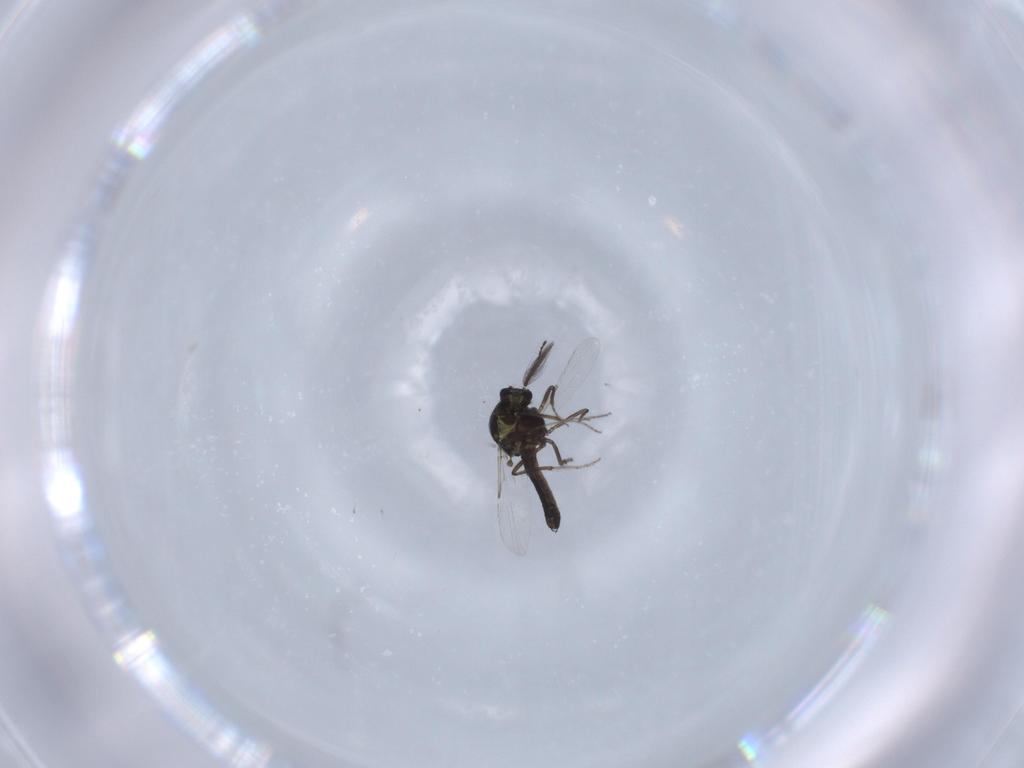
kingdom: Animalia
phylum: Arthropoda
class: Insecta
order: Diptera
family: Ceratopogonidae
